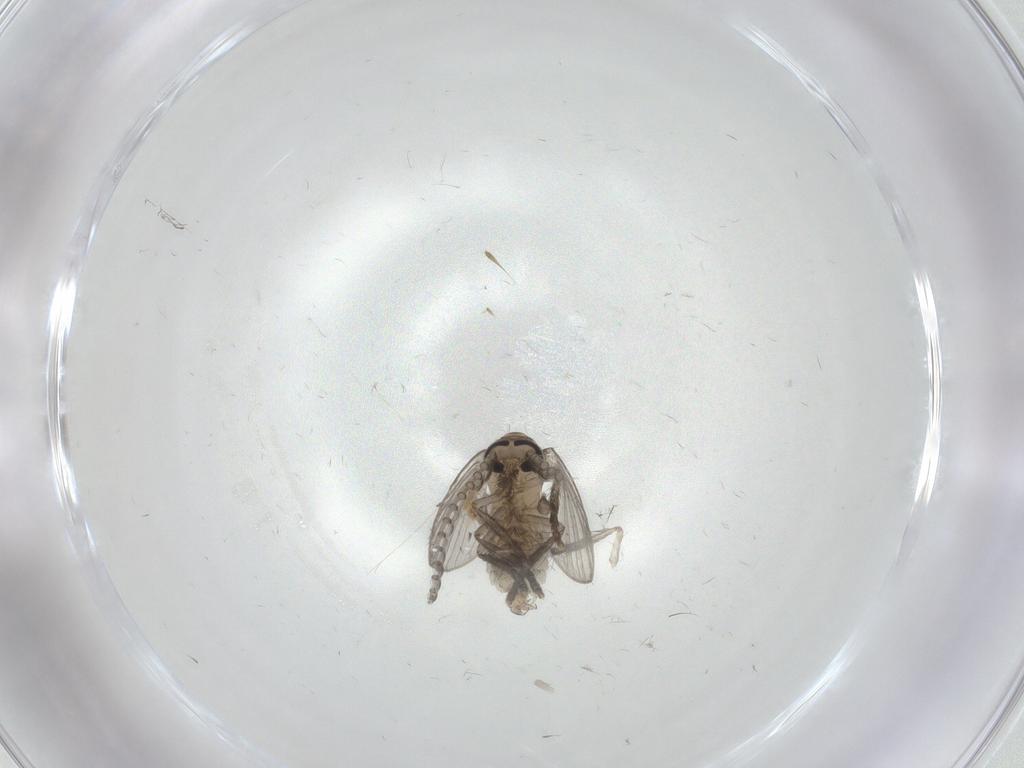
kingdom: Animalia
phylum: Arthropoda
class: Insecta
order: Diptera
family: Psychodidae
